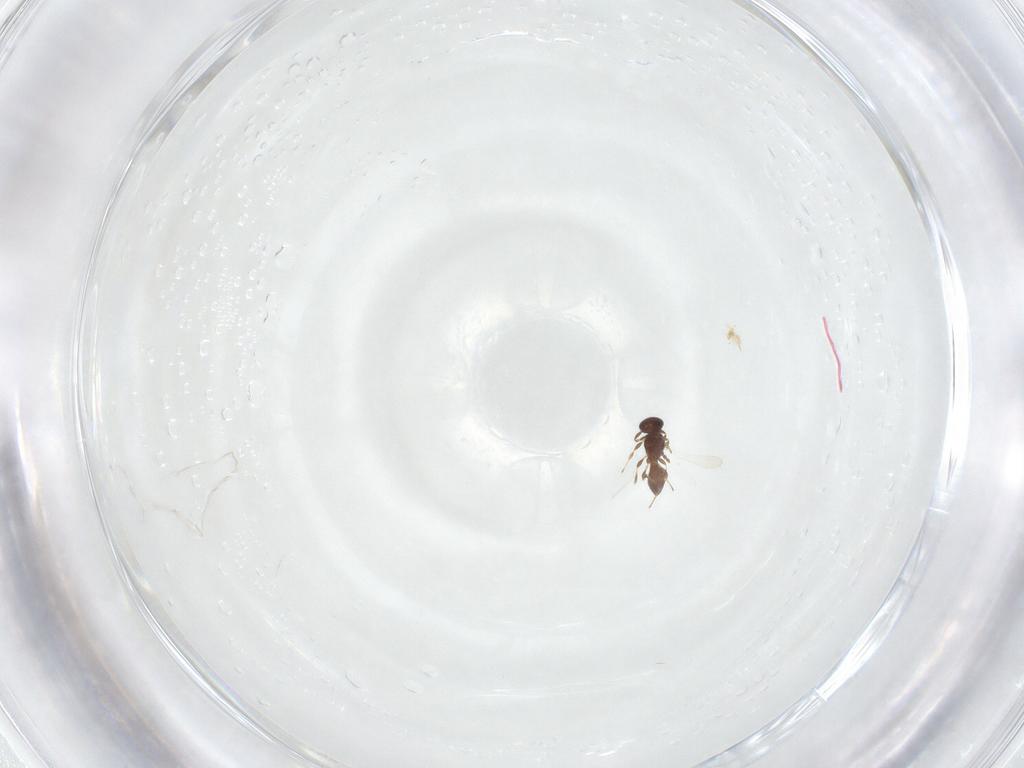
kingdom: Animalia
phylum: Arthropoda
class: Insecta
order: Hymenoptera
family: Platygastridae
